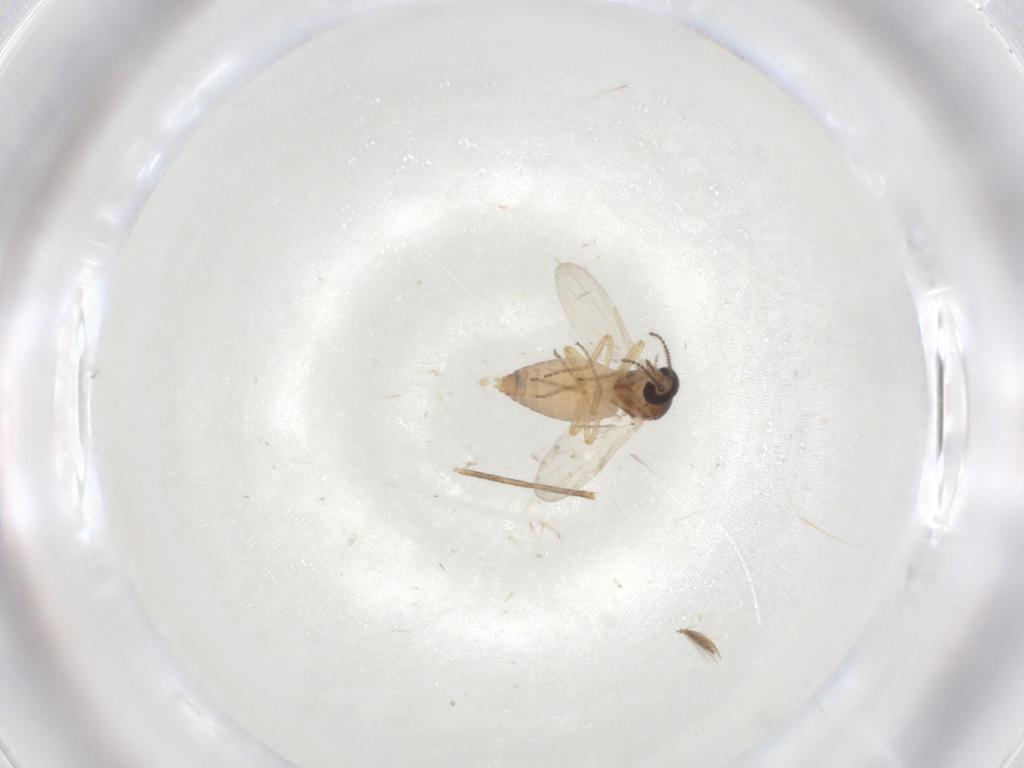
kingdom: Animalia
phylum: Arthropoda
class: Insecta
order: Diptera
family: Ceratopogonidae
